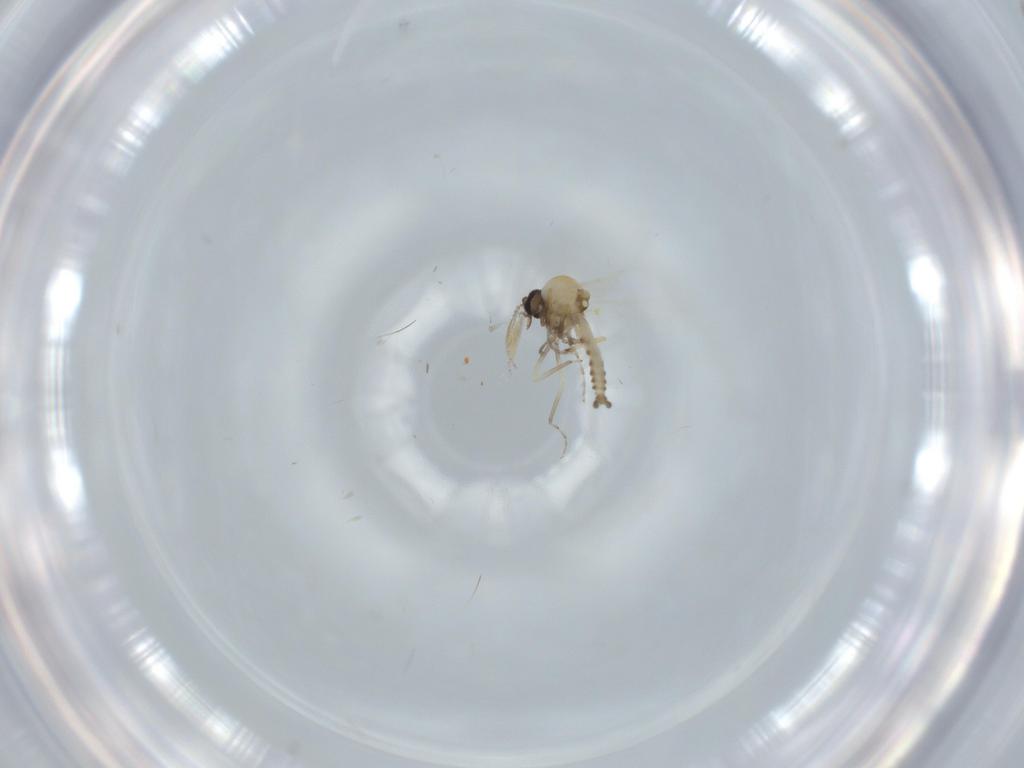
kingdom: Animalia
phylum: Arthropoda
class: Insecta
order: Diptera
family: Ceratopogonidae
